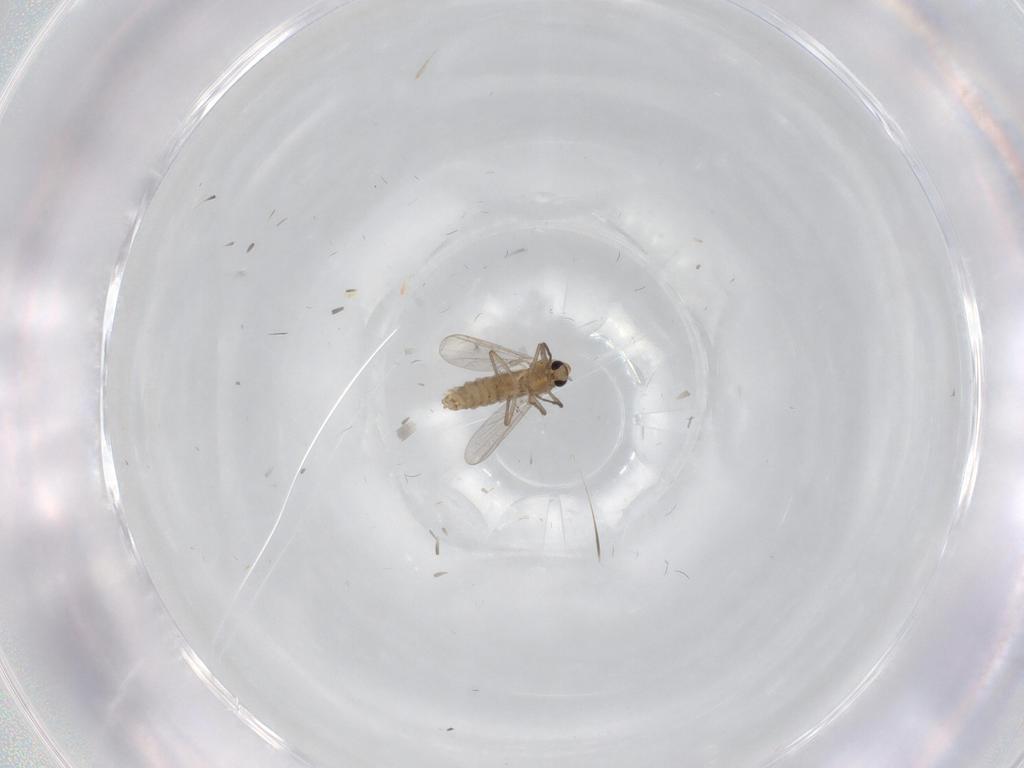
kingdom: Animalia
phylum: Arthropoda
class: Insecta
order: Diptera
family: Chironomidae
